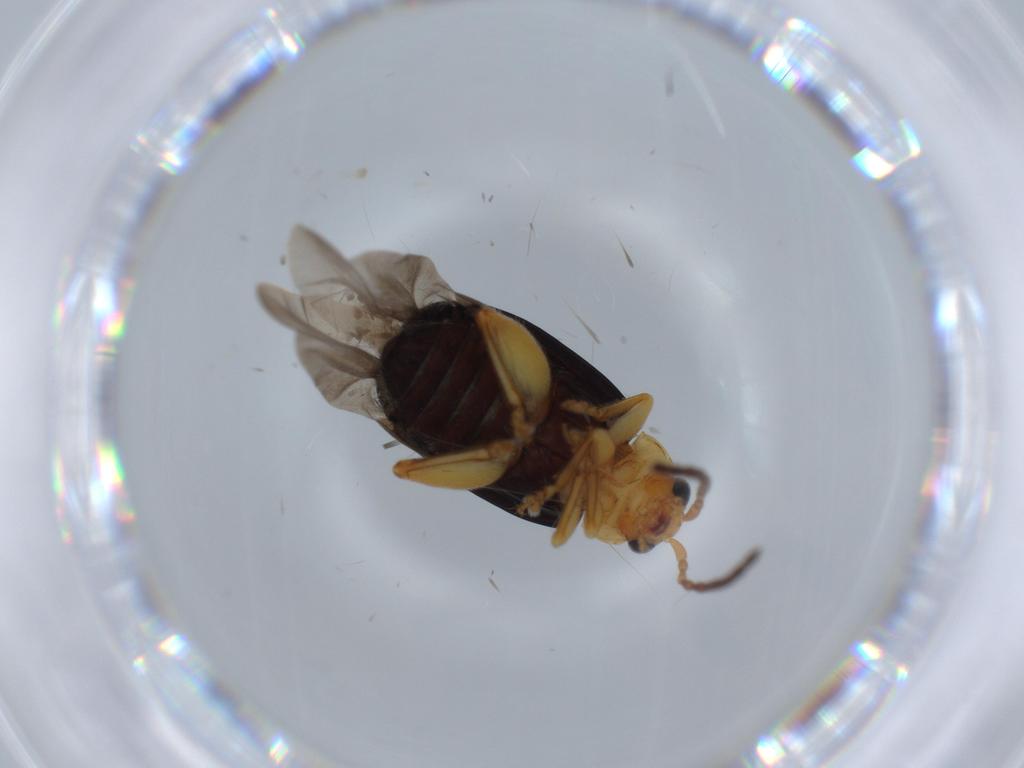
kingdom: Animalia
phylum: Arthropoda
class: Insecta
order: Coleoptera
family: Chrysomelidae
